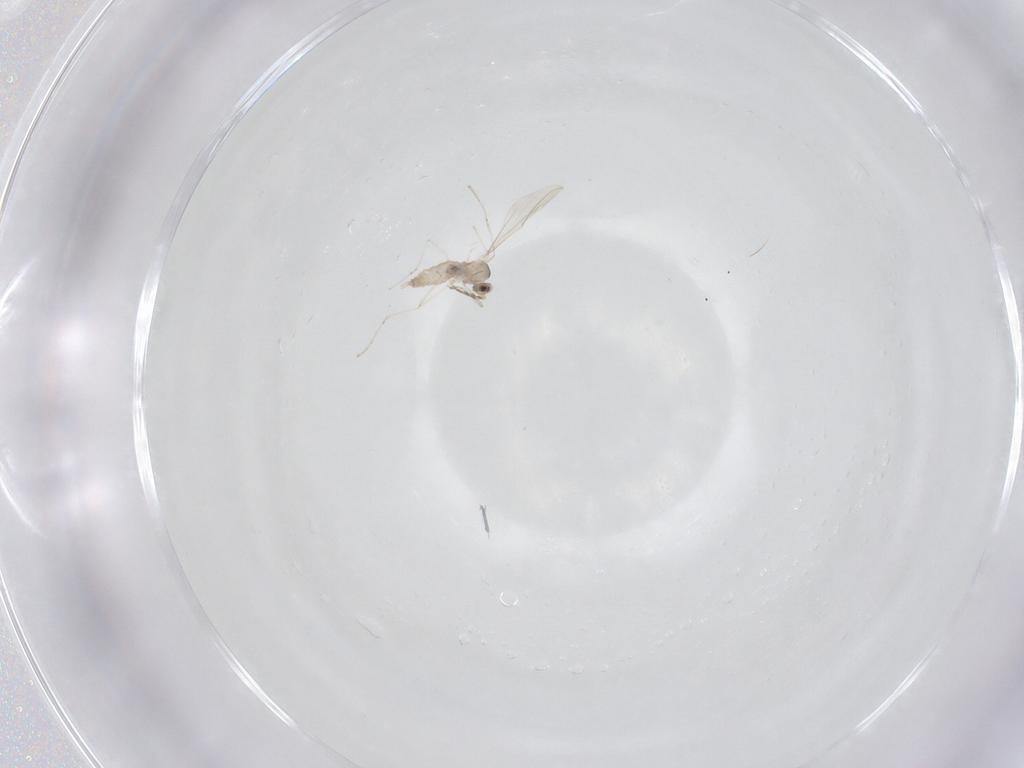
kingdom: Animalia
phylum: Arthropoda
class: Insecta
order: Diptera
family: Cecidomyiidae
